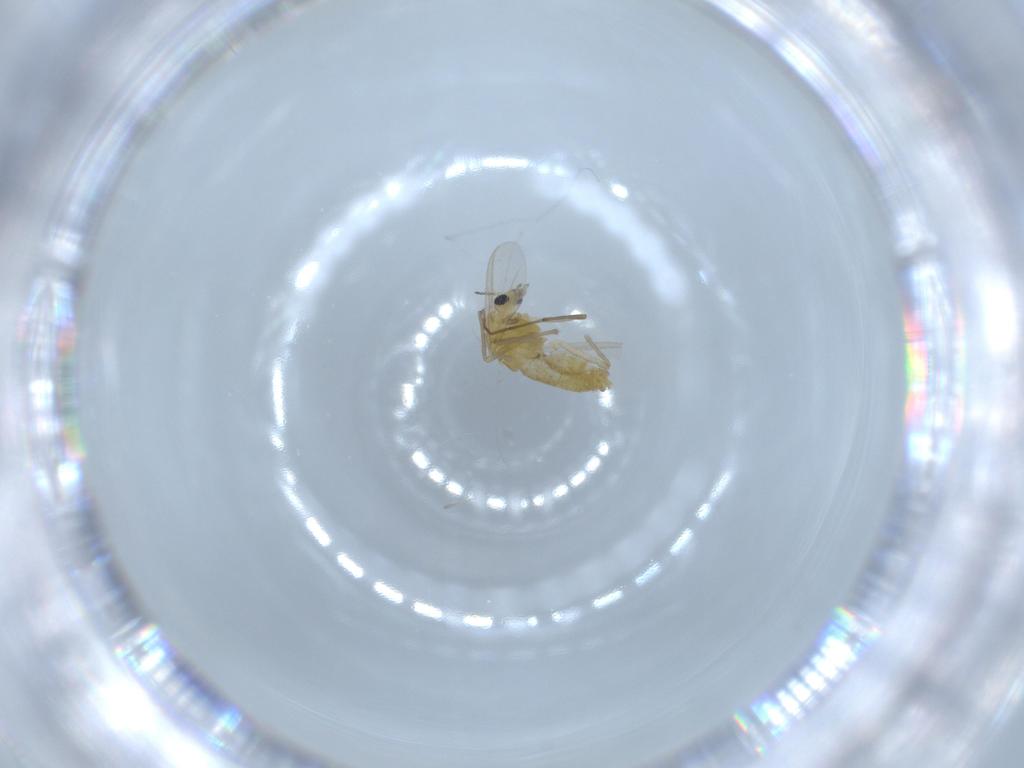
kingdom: Animalia
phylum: Arthropoda
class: Insecta
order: Diptera
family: Chironomidae
